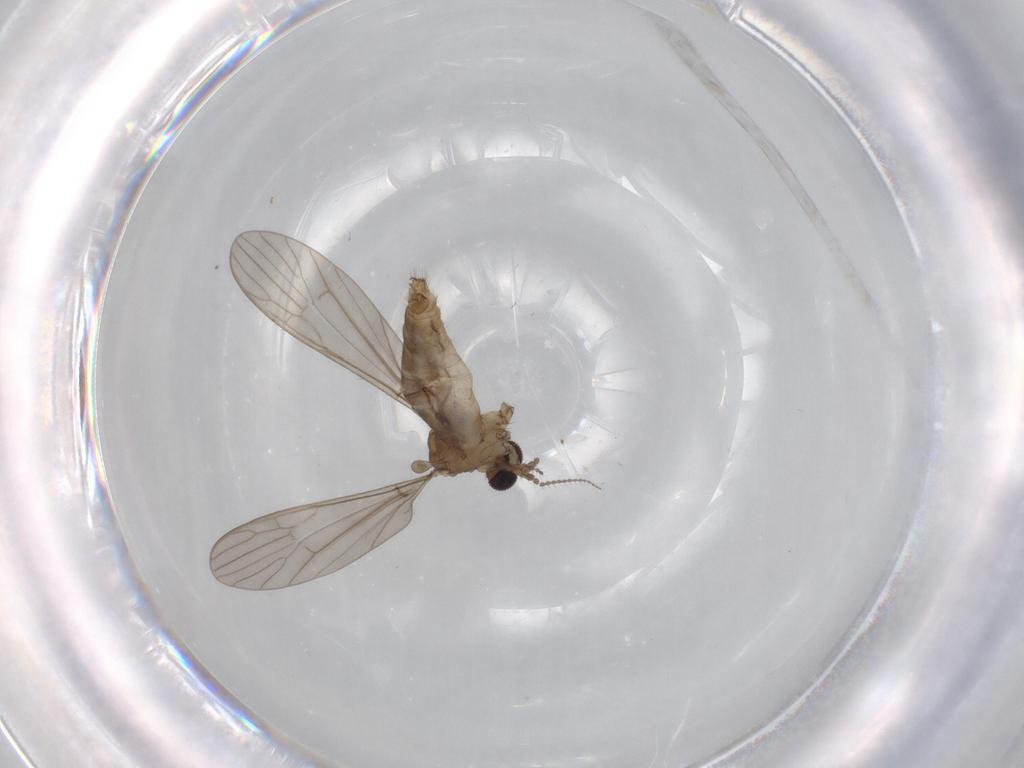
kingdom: Animalia
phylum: Arthropoda
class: Insecta
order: Diptera
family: Limoniidae
